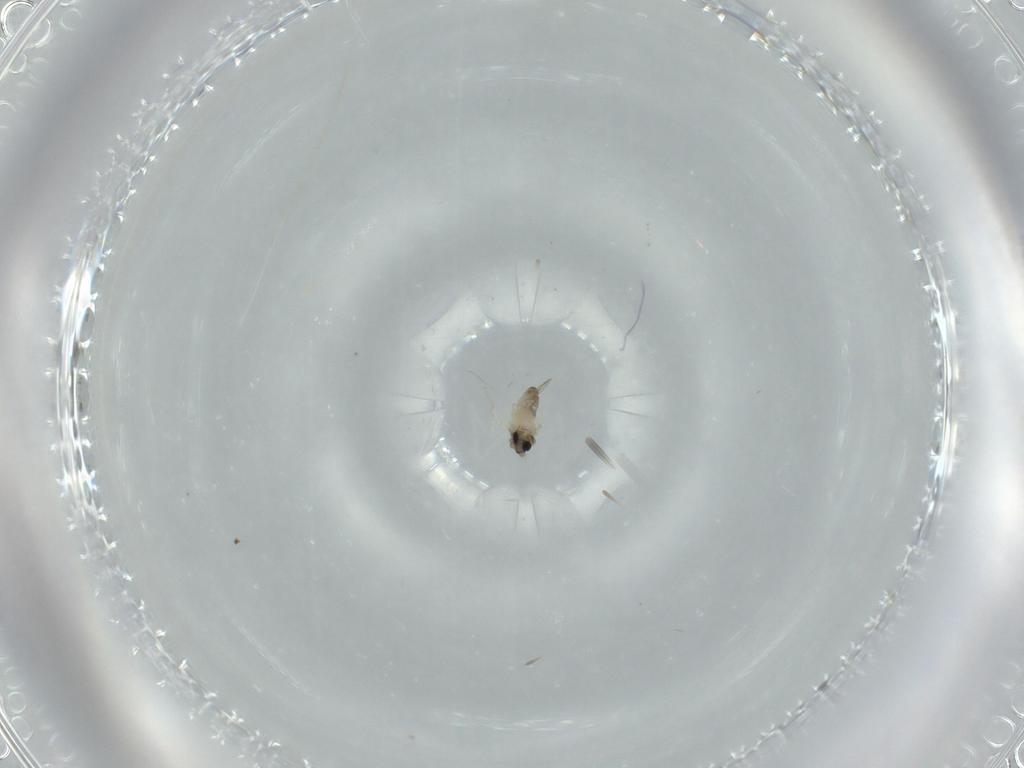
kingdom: Animalia
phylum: Arthropoda
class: Insecta
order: Diptera
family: Cecidomyiidae
